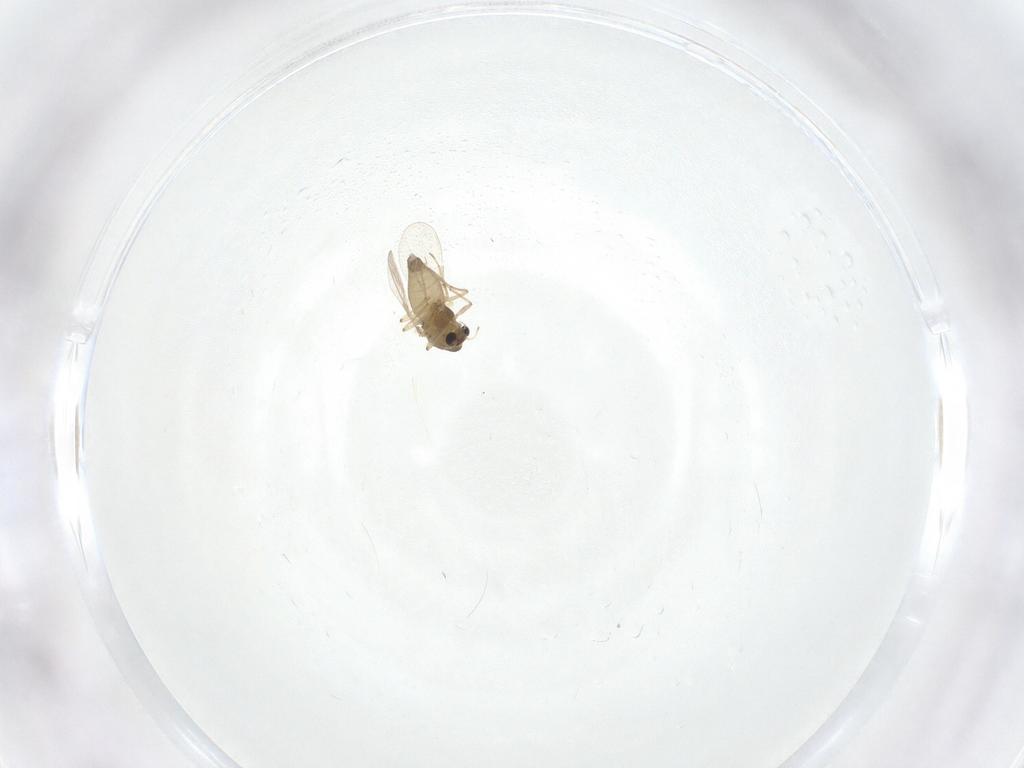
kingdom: Animalia
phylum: Arthropoda
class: Insecta
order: Diptera
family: Chironomidae
